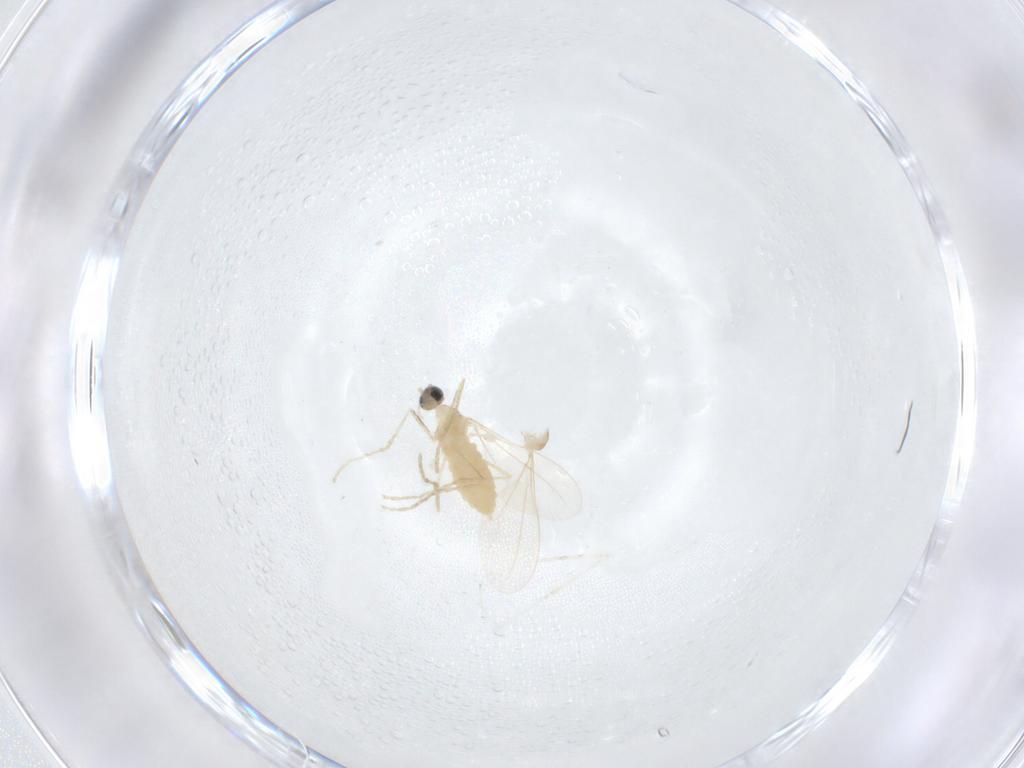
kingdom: Animalia
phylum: Arthropoda
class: Insecta
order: Diptera
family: Cecidomyiidae
